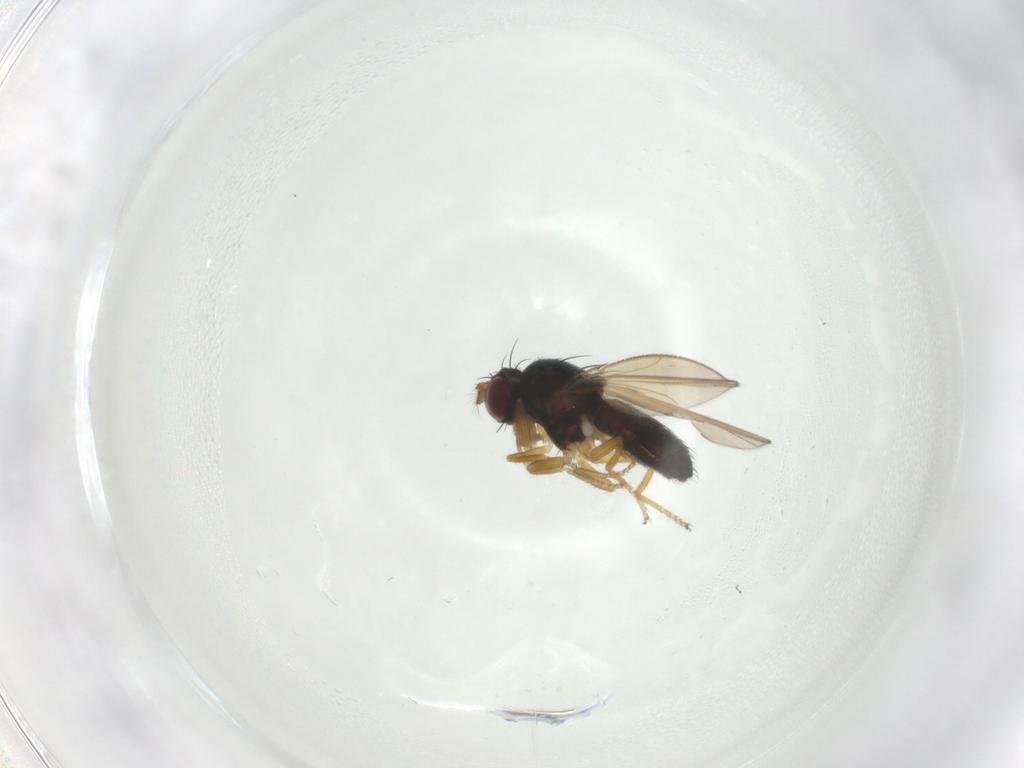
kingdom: Animalia
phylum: Arthropoda
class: Insecta
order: Diptera
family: Ephydridae
